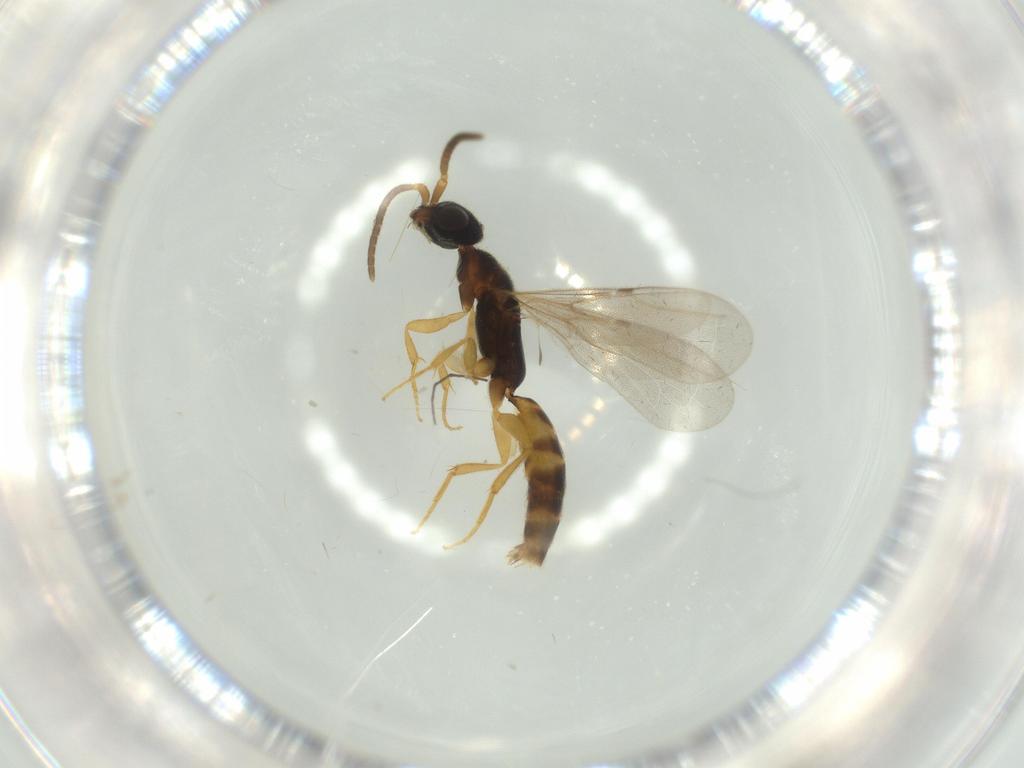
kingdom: Animalia
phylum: Arthropoda
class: Insecta
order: Hymenoptera
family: Bethylidae
